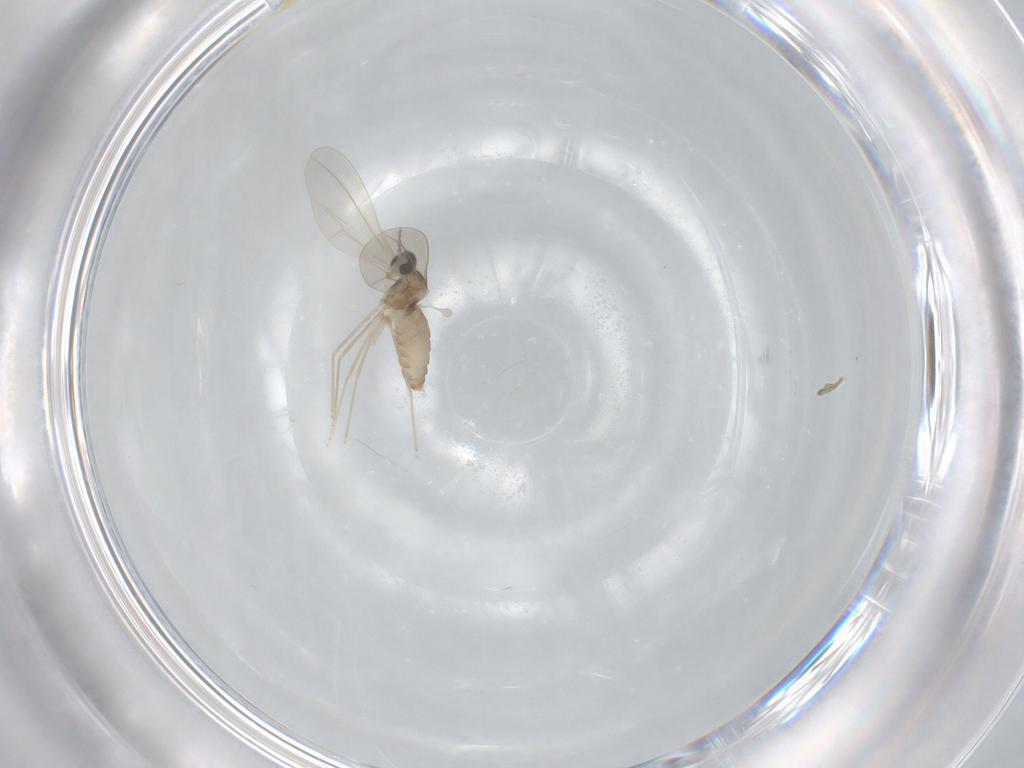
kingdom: Animalia
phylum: Arthropoda
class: Insecta
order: Diptera
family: Cecidomyiidae
